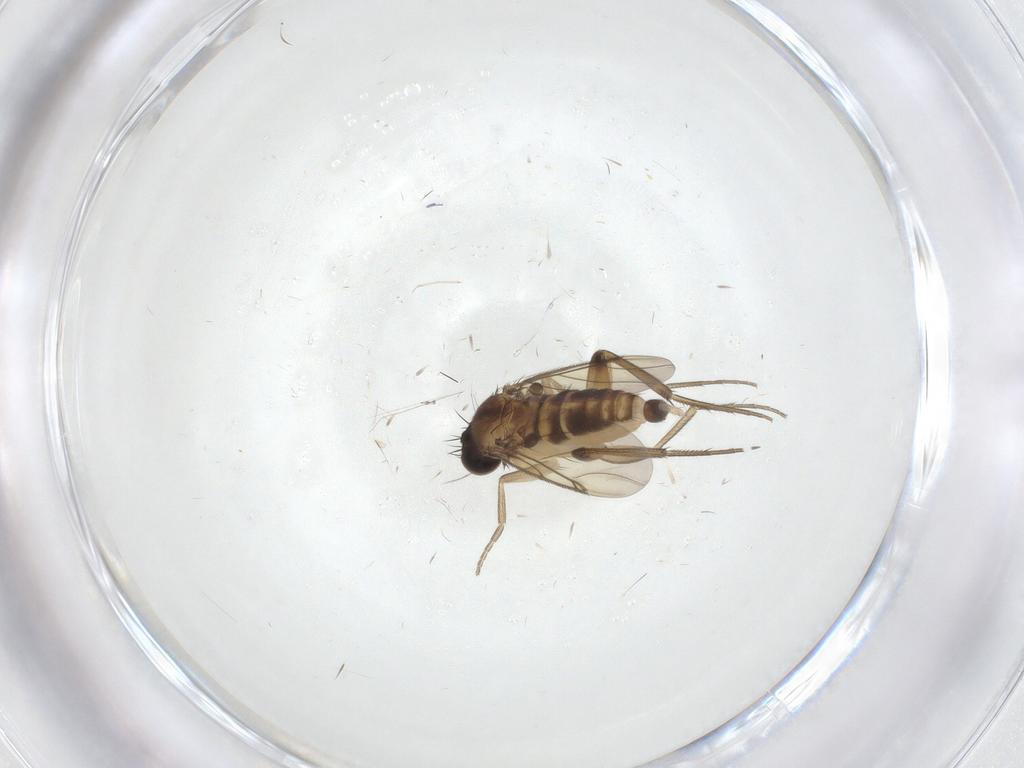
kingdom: Animalia
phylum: Arthropoda
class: Insecta
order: Diptera
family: Phoridae
